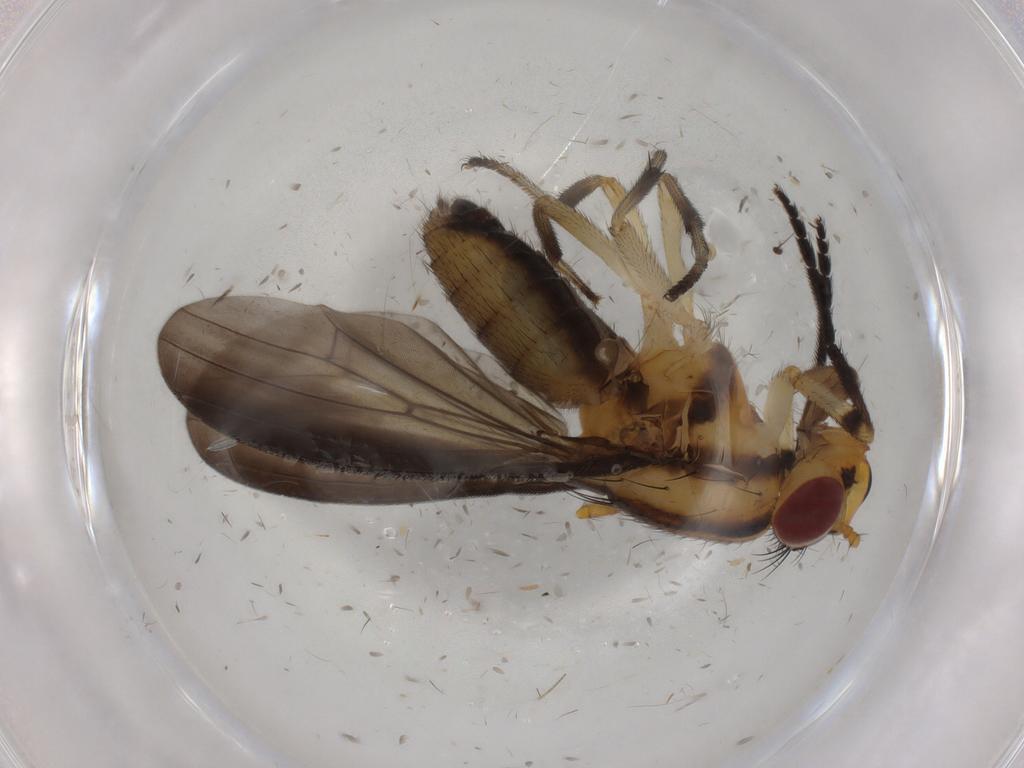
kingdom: Animalia
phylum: Arthropoda
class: Insecta
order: Diptera
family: Lauxaniidae
